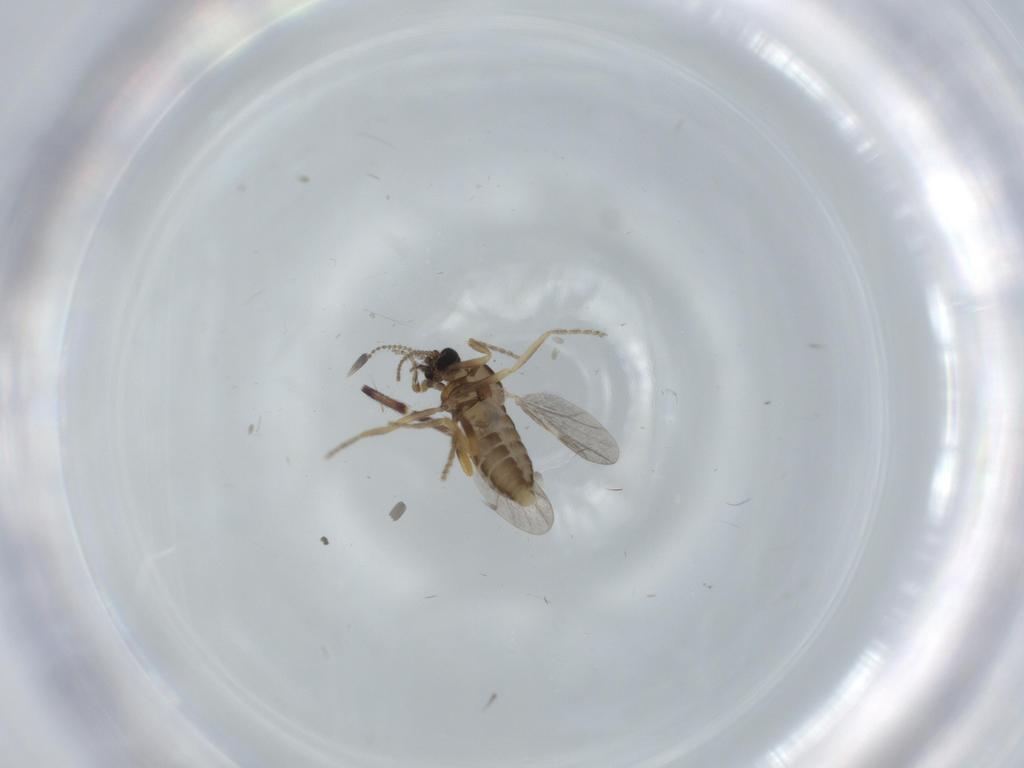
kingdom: Animalia
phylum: Arthropoda
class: Insecta
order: Diptera
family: Ceratopogonidae
